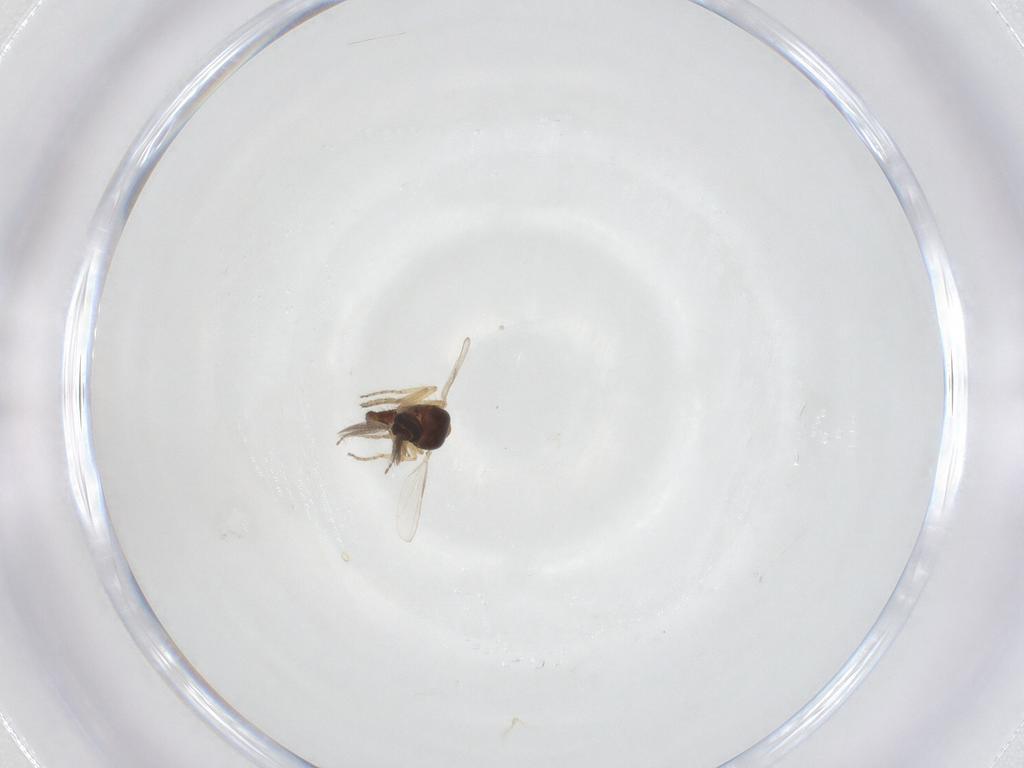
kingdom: Animalia
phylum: Arthropoda
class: Insecta
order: Diptera
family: Ceratopogonidae
